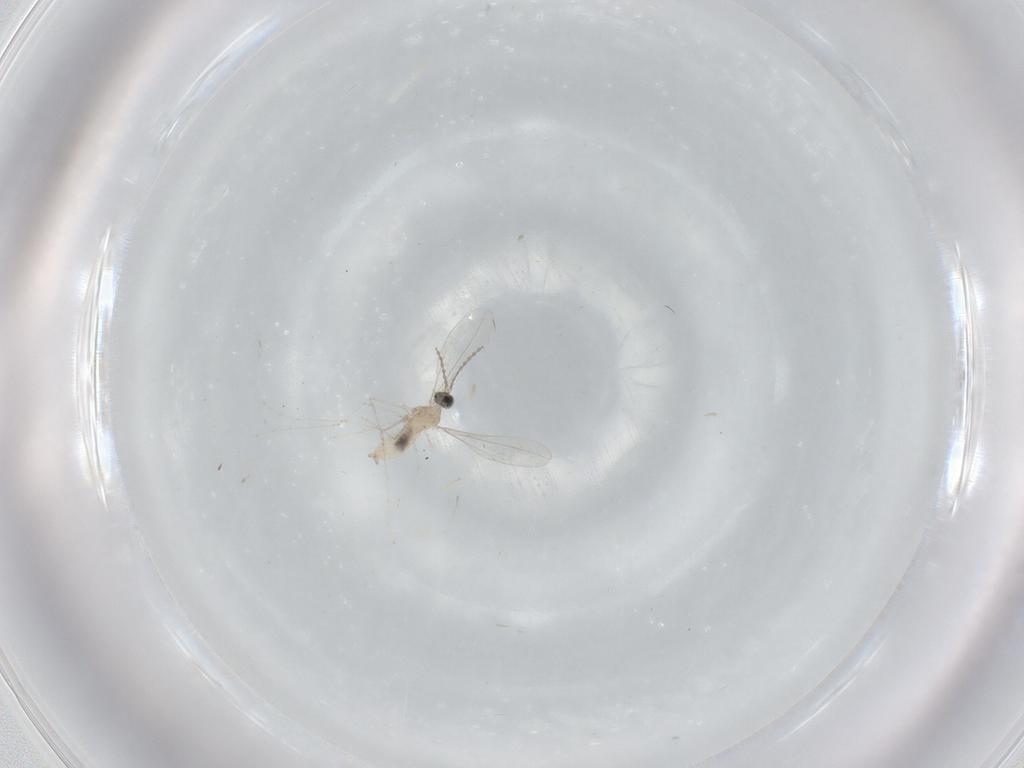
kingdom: Animalia
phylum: Arthropoda
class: Insecta
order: Diptera
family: Cecidomyiidae
